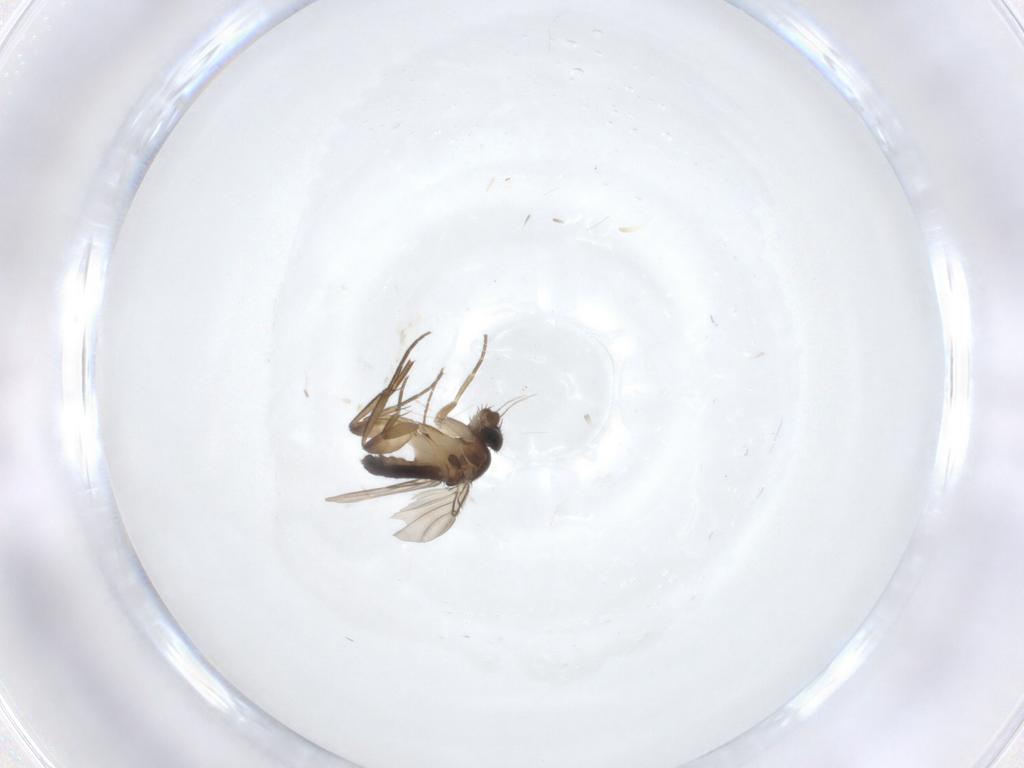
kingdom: Animalia
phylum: Arthropoda
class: Insecta
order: Diptera
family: Phoridae
